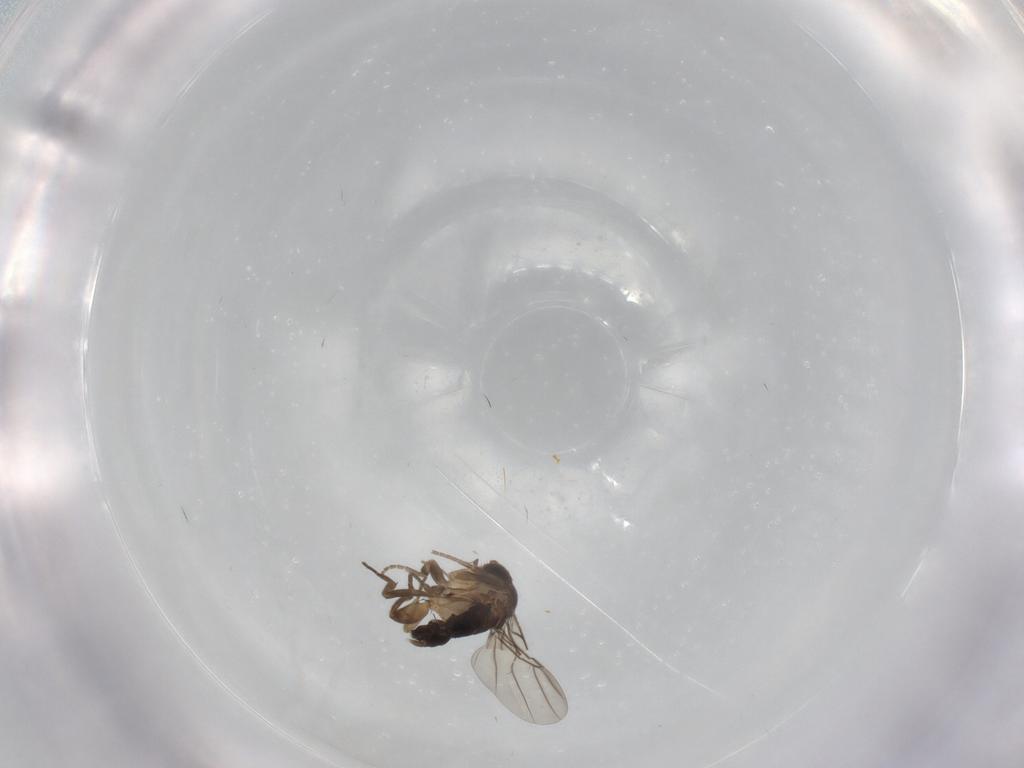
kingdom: Animalia
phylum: Arthropoda
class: Insecta
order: Diptera
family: Phoridae
